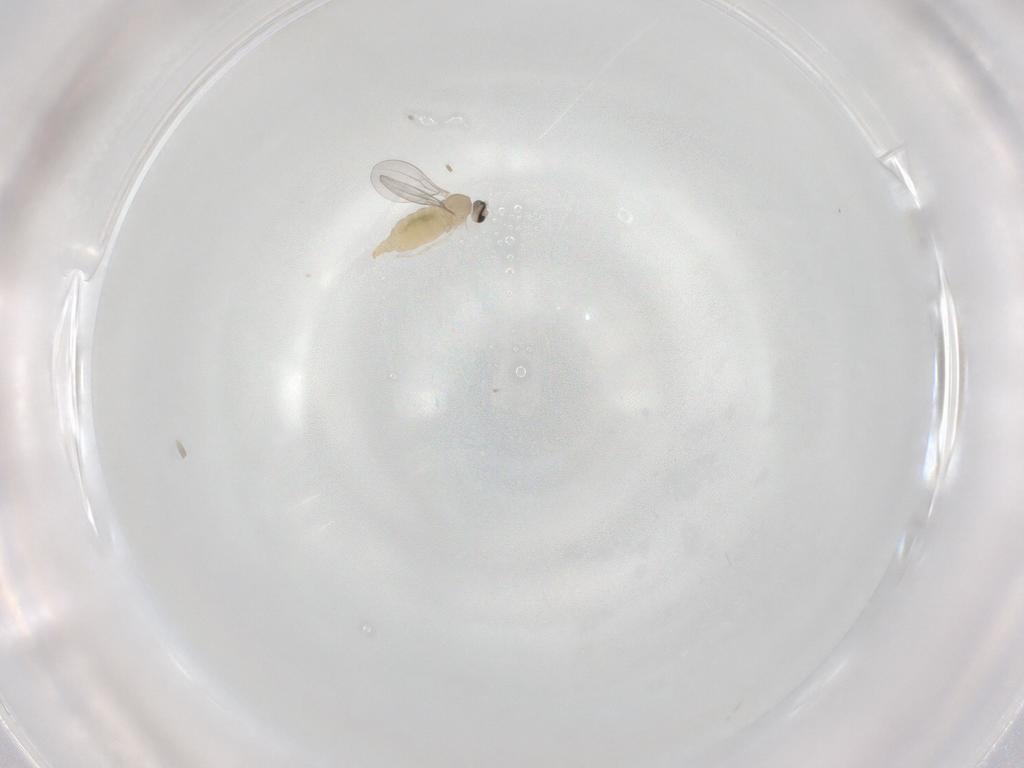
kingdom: Animalia
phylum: Arthropoda
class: Insecta
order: Diptera
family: Cecidomyiidae
